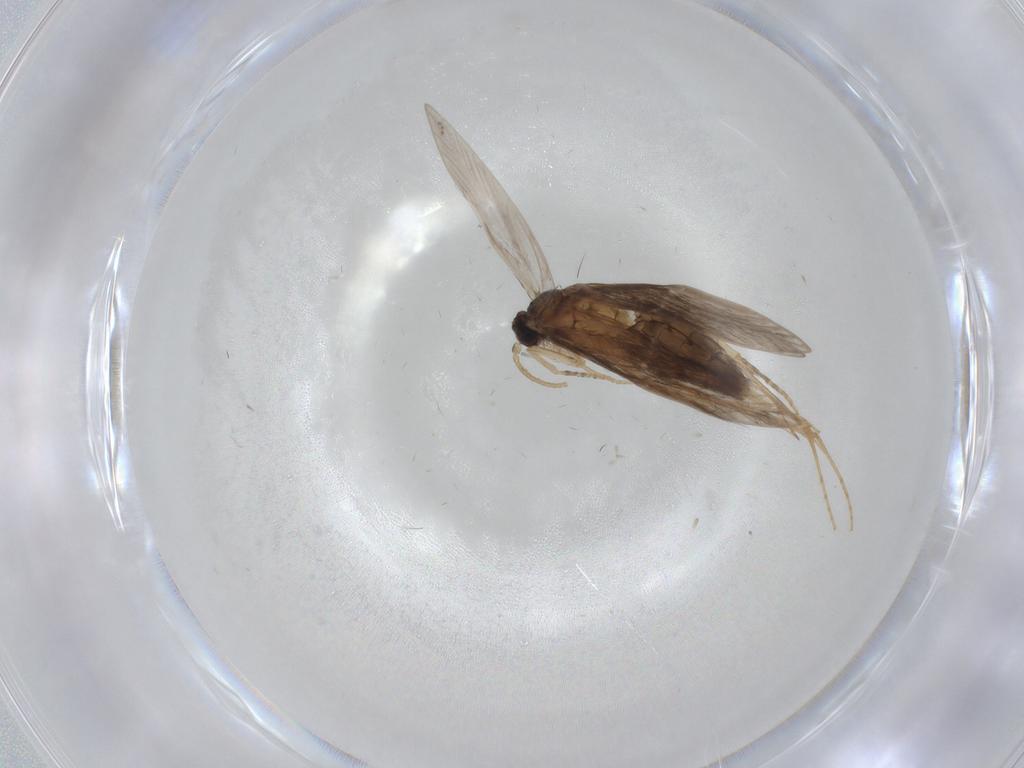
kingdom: Animalia
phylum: Arthropoda
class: Insecta
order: Trichoptera
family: Hydroptilidae
